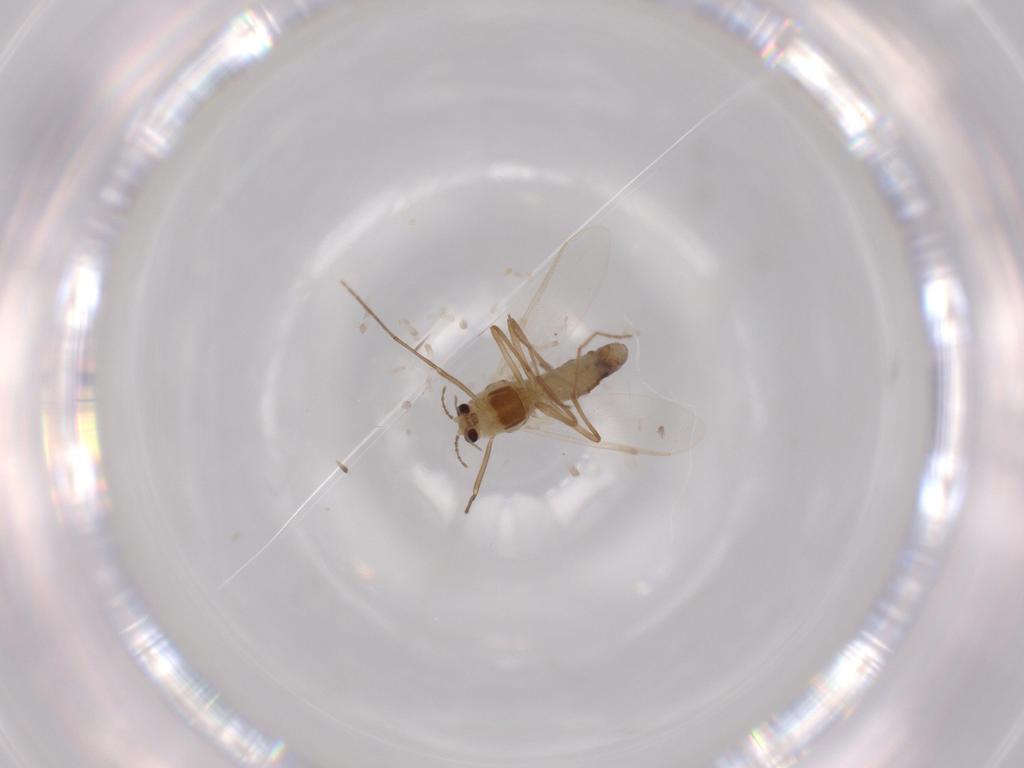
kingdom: Animalia
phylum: Arthropoda
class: Insecta
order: Diptera
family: Chironomidae
